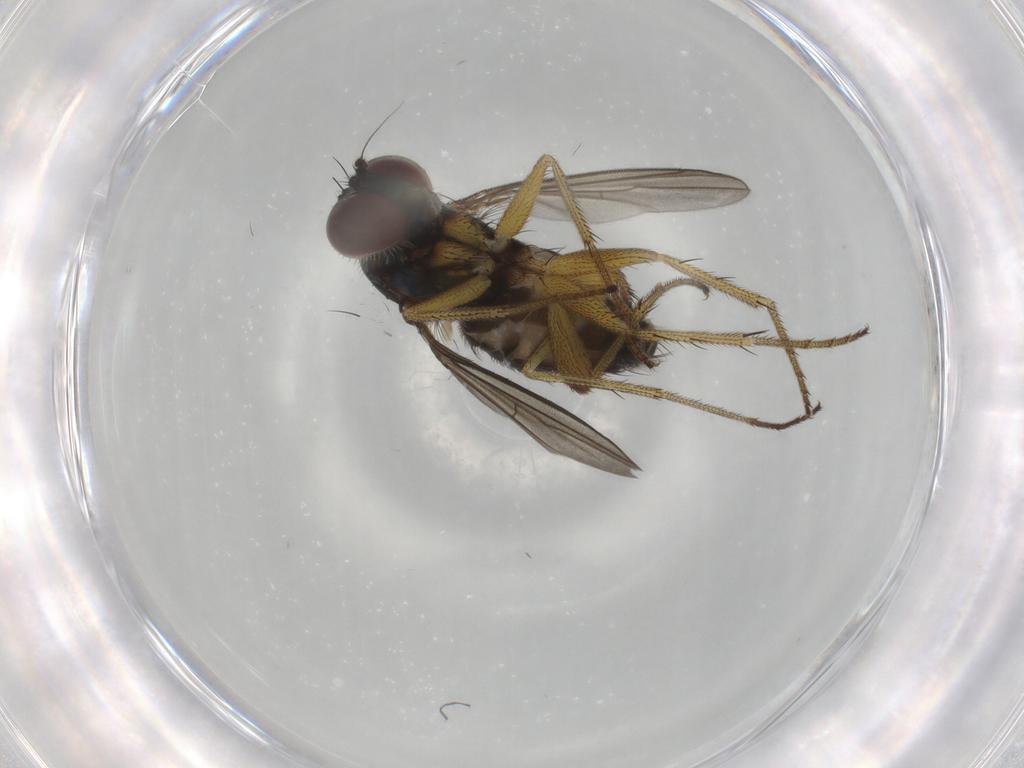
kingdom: Animalia
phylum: Arthropoda
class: Insecta
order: Diptera
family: Dolichopodidae
